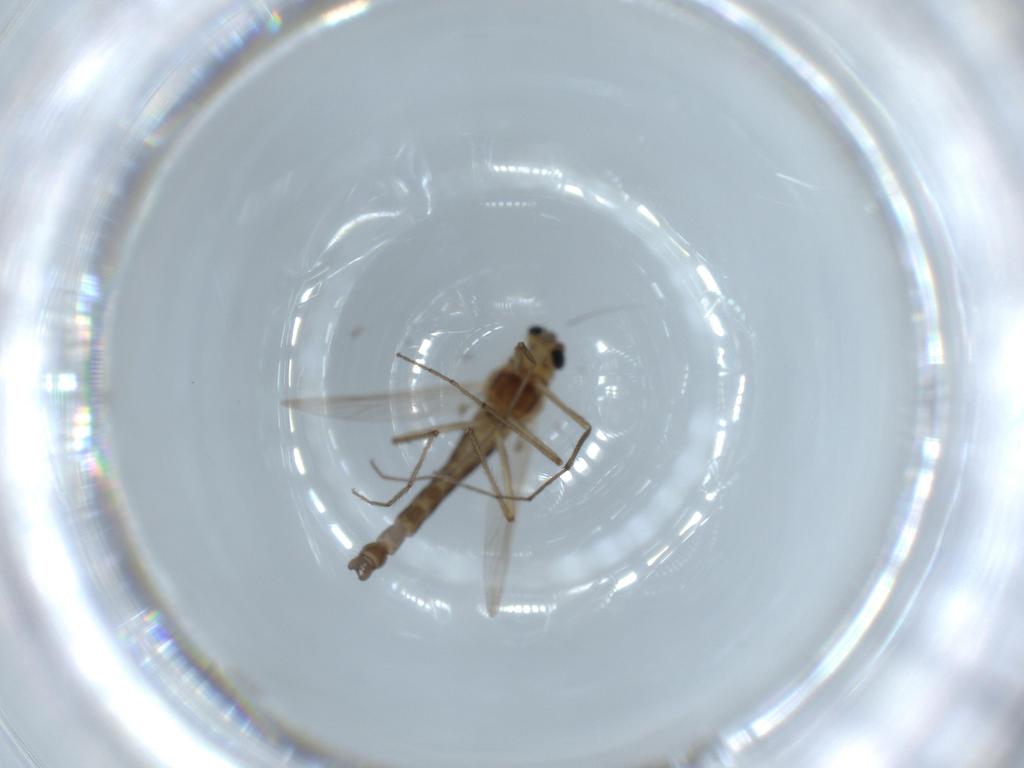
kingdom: Animalia
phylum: Arthropoda
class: Insecta
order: Diptera
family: Chironomidae
